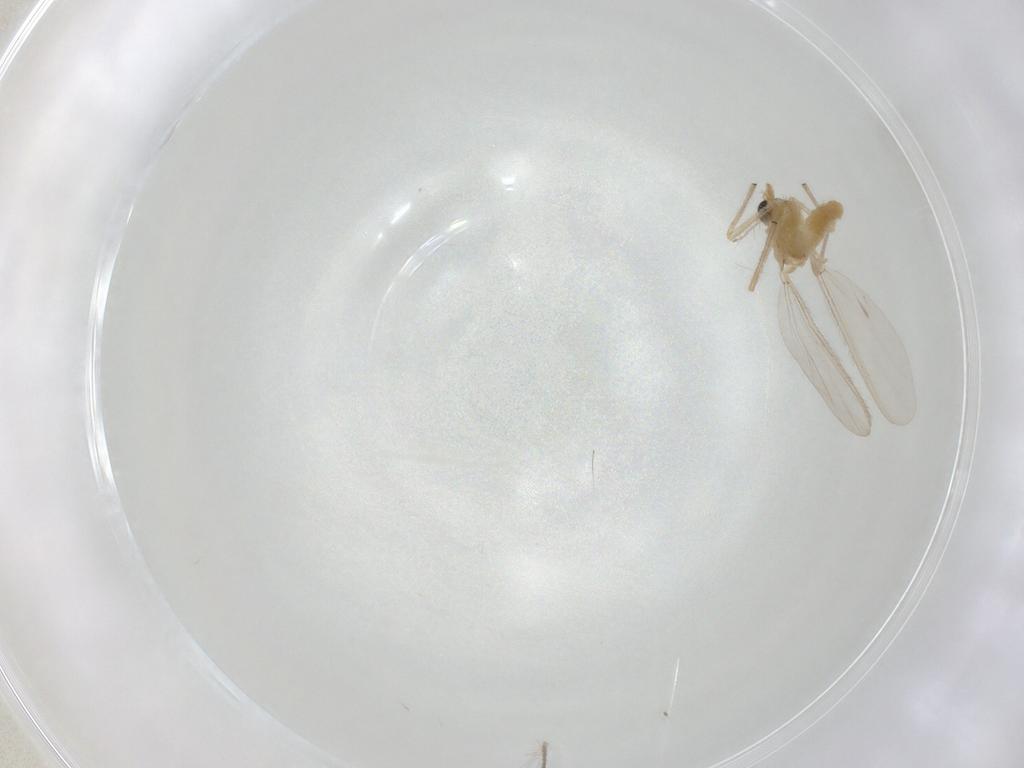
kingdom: Animalia
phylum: Arthropoda
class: Insecta
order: Diptera
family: Chironomidae
